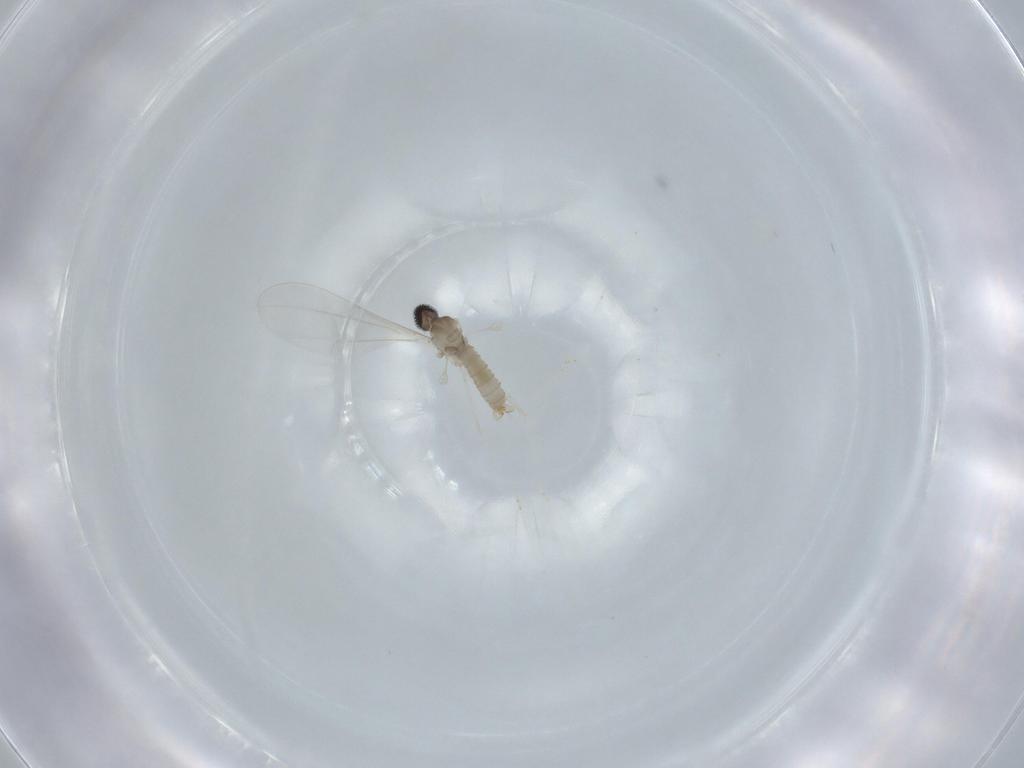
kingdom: Animalia
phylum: Arthropoda
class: Insecta
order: Diptera
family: Cecidomyiidae
